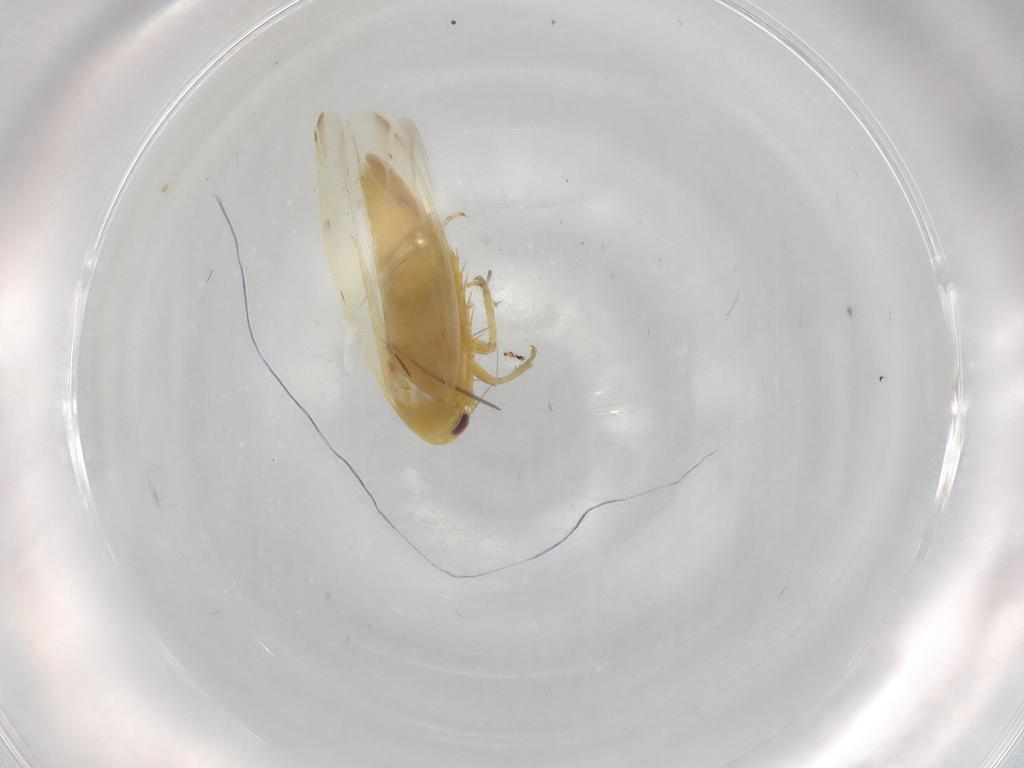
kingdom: Animalia
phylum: Arthropoda
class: Insecta
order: Hemiptera
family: Cicadellidae
